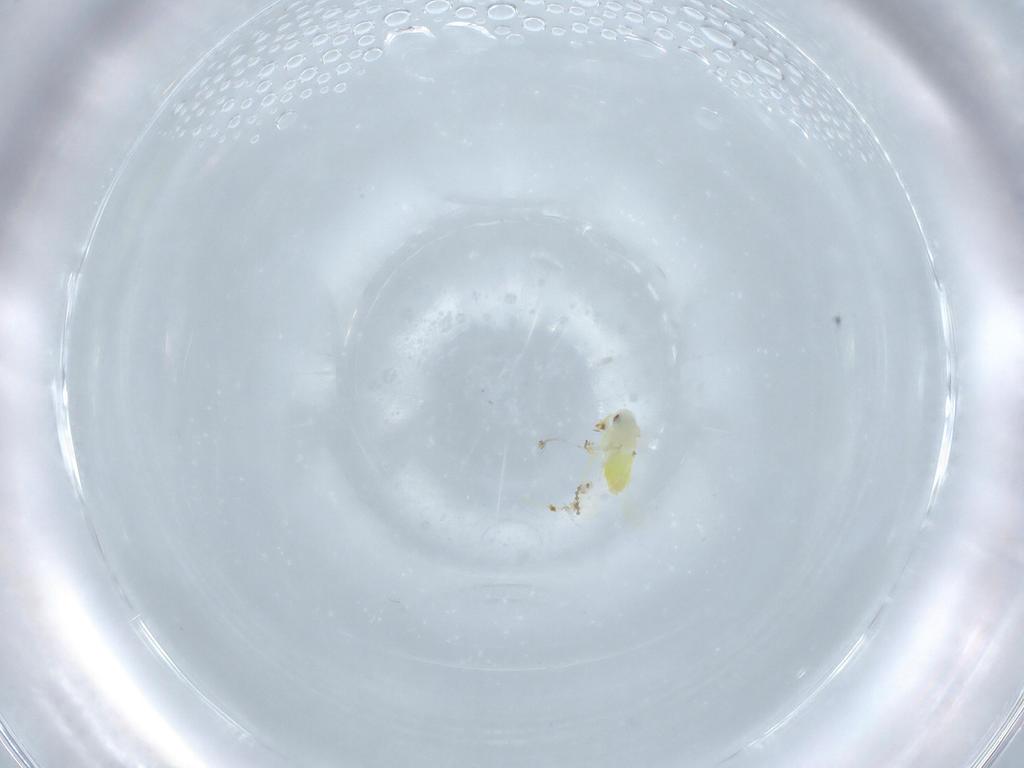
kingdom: Animalia
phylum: Arthropoda
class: Insecta
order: Hemiptera
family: Aleyrodidae
